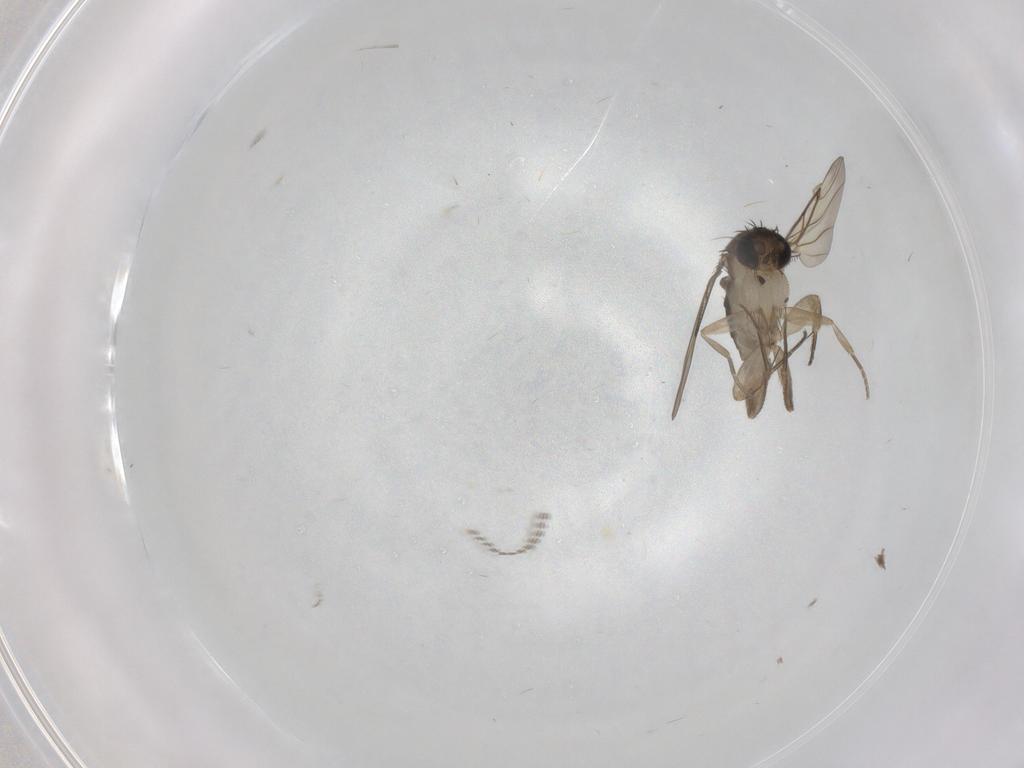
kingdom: Animalia
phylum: Arthropoda
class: Insecta
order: Diptera
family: Phoridae
